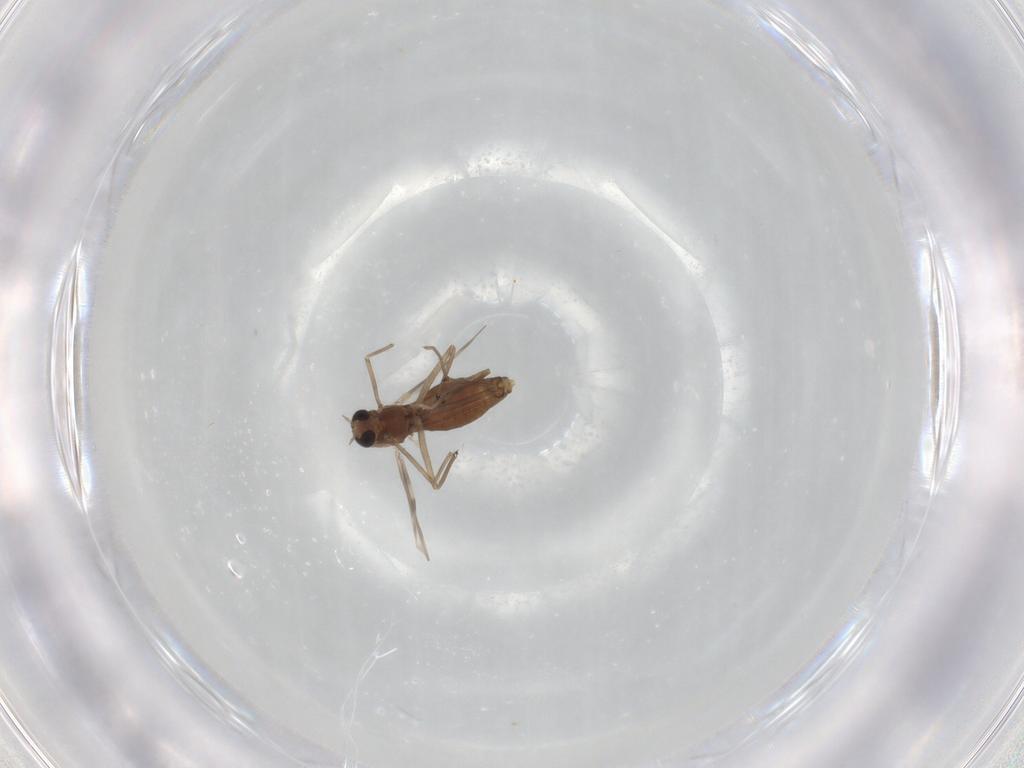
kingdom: Animalia
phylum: Arthropoda
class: Insecta
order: Diptera
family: Chironomidae
